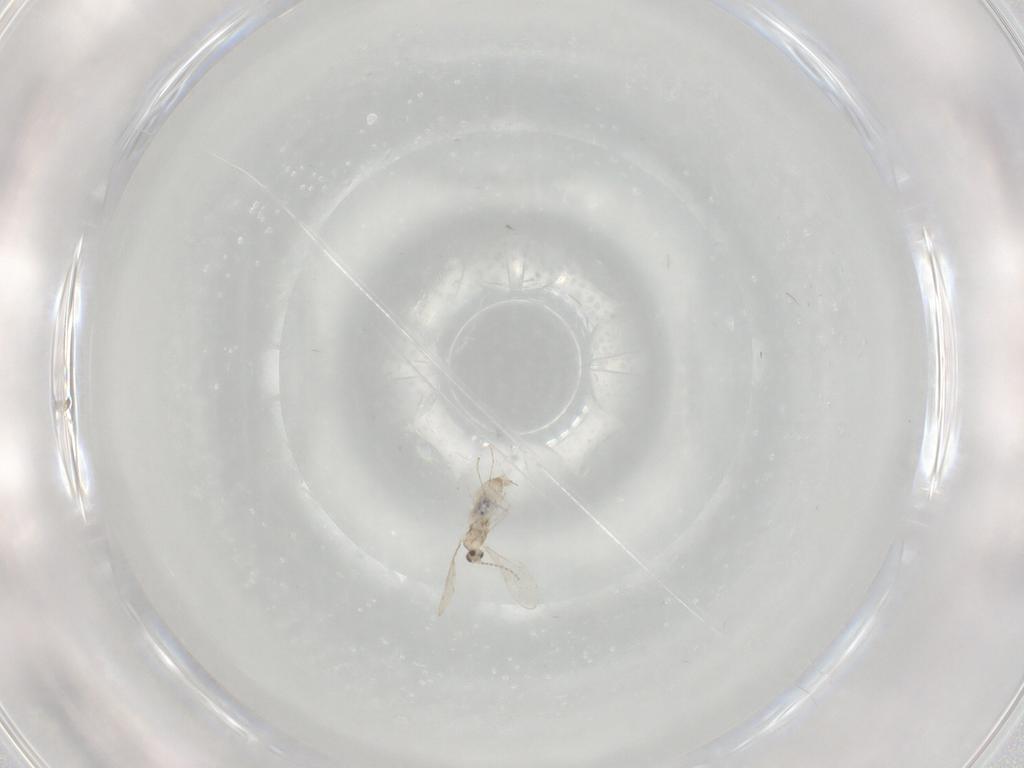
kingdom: Animalia
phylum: Arthropoda
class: Insecta
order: Diptera
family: Cecidomyiidae
